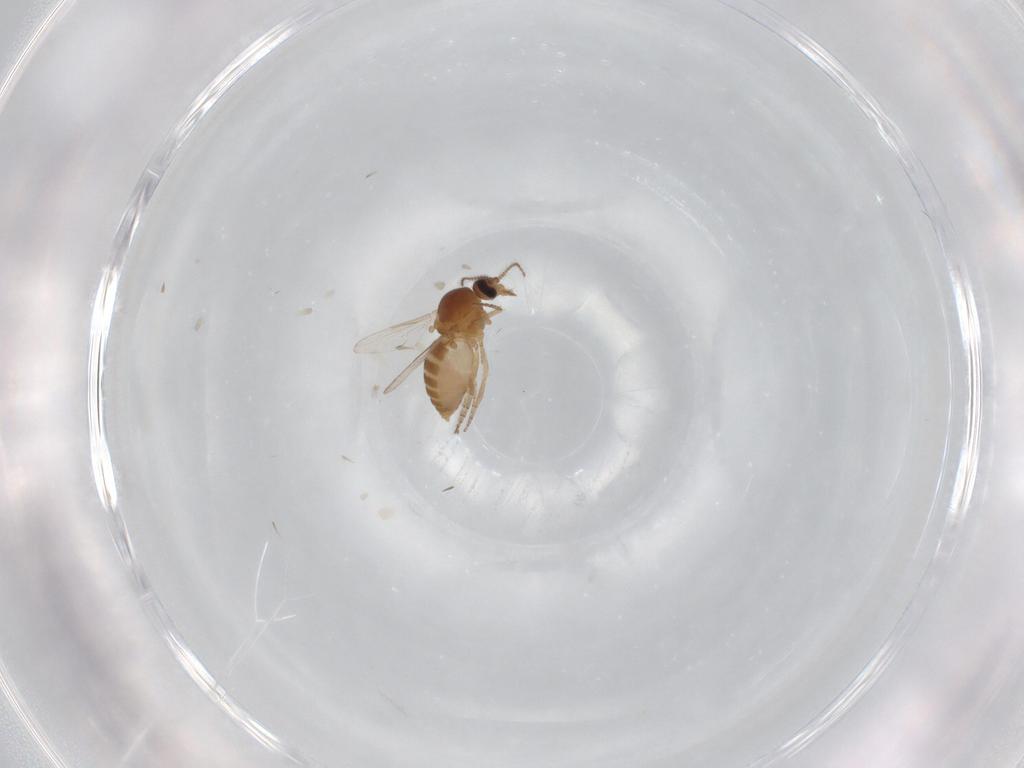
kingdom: Animalia
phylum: Arthropoda
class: Insecta
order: Diptera
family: Ceratopogonidae
